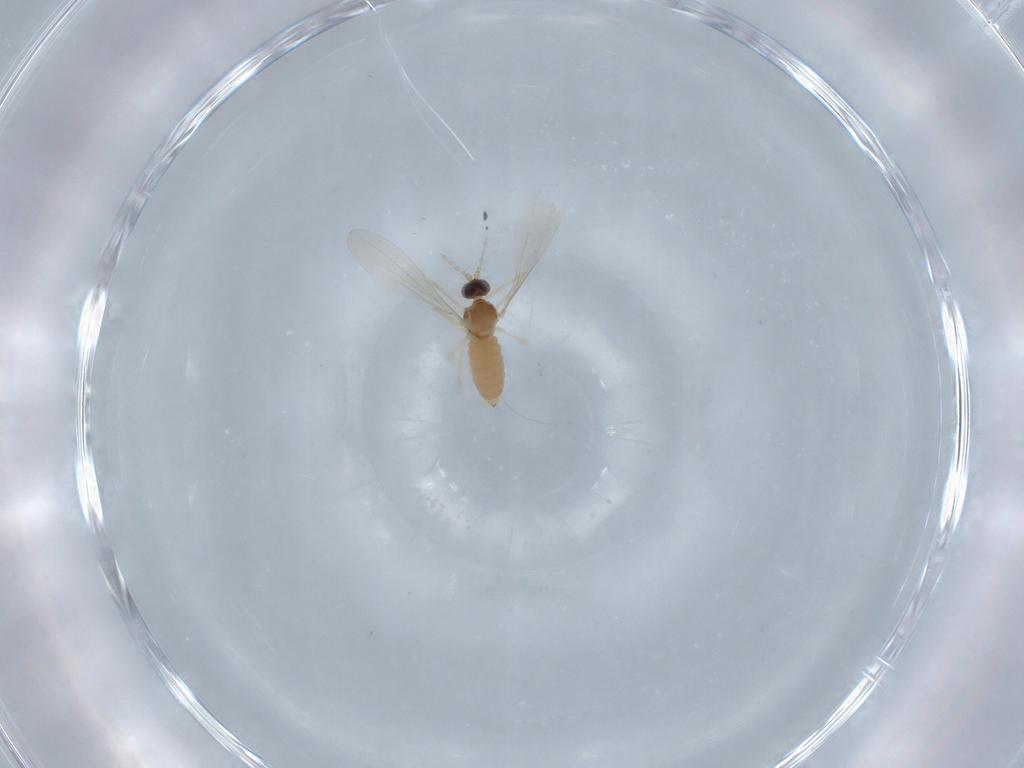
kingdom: Animalia
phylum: Arthropoda
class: Insecta
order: Diptera
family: Cecidomyiidae
